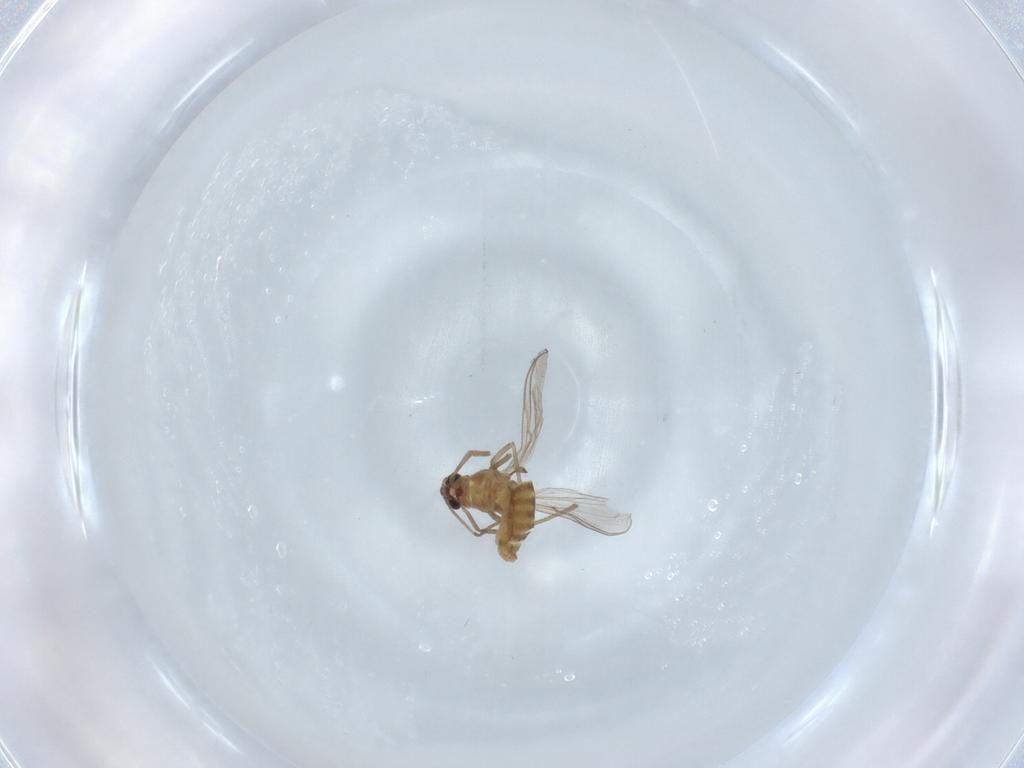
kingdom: Animalia
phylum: Arthropoda
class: Insecta
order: Diptera
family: Chironomidae
